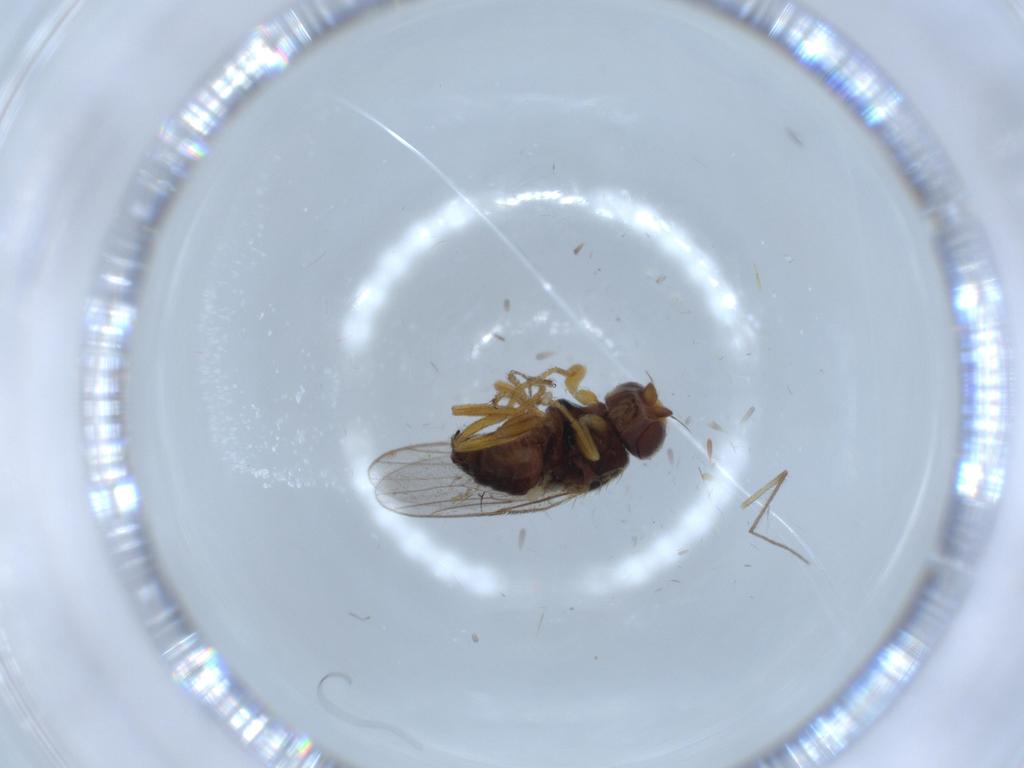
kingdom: Animalia
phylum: Arthropoda
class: Insecta
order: Diptera
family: Chloropidae
